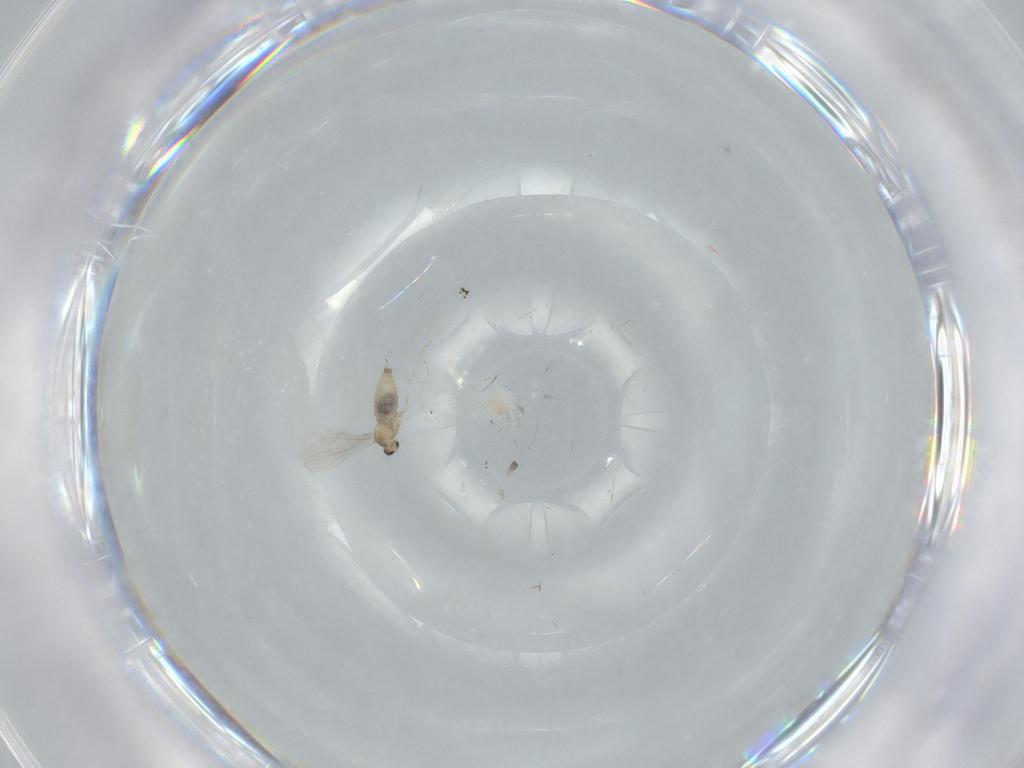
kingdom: Animalia
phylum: Arthropoda
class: Insecta
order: Diptera
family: Cecidomyiidae
